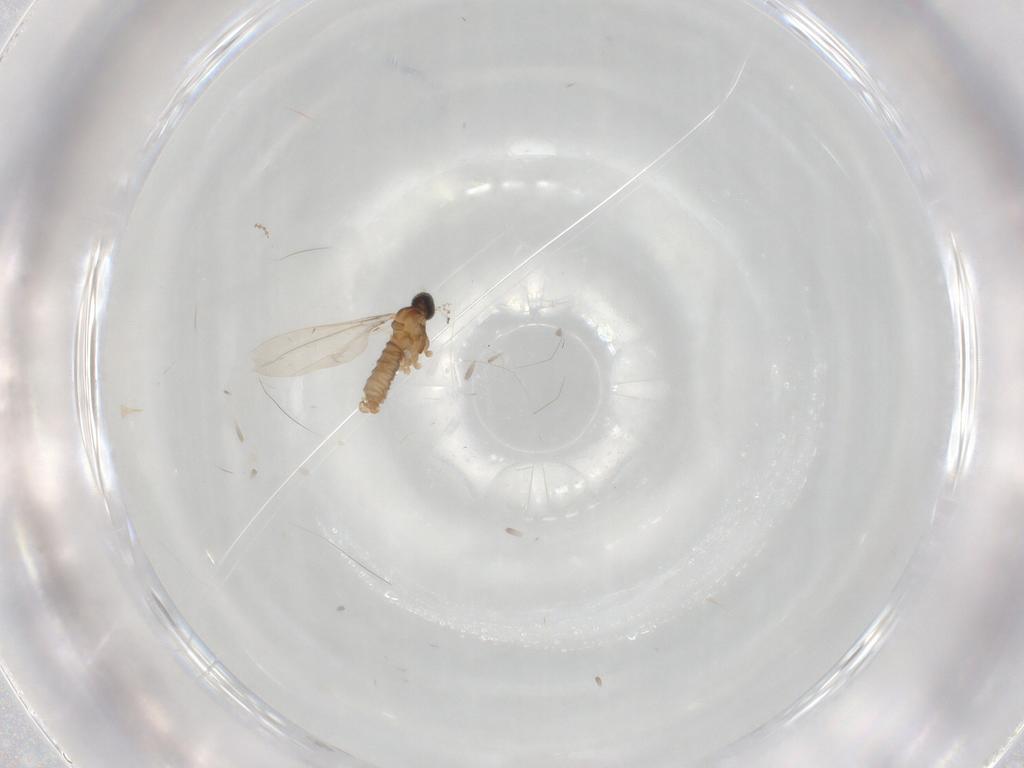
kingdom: Animalia
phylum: Arthropoda
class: Insecta
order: Diptera
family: Cecidomyiidae
